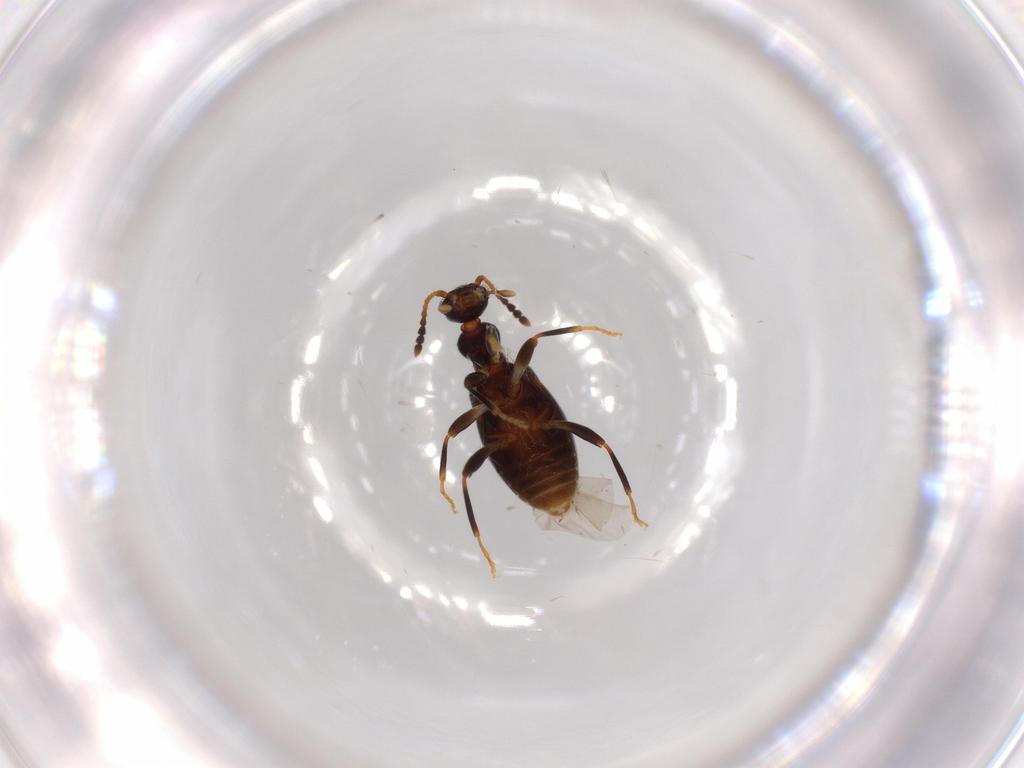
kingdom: Animalia
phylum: Arthropoda
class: Insecta
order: Coleoptera
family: Anthicidae
